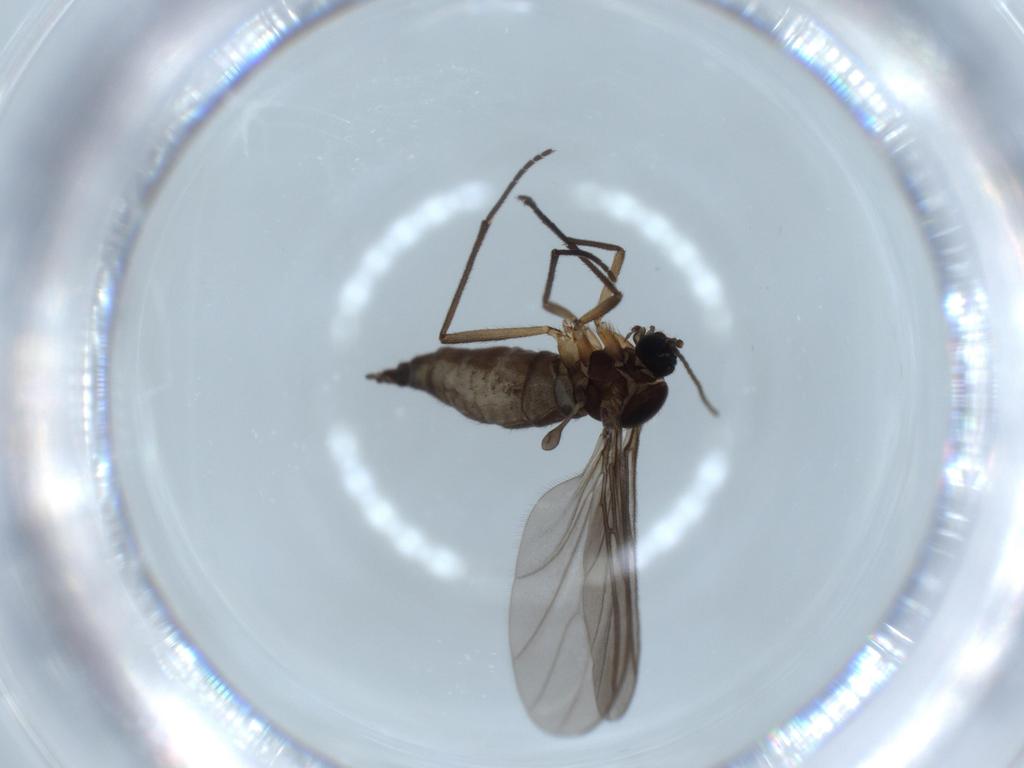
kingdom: Animalia
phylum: Arthropoda
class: Insecta
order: Diptera
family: Sciaridae
